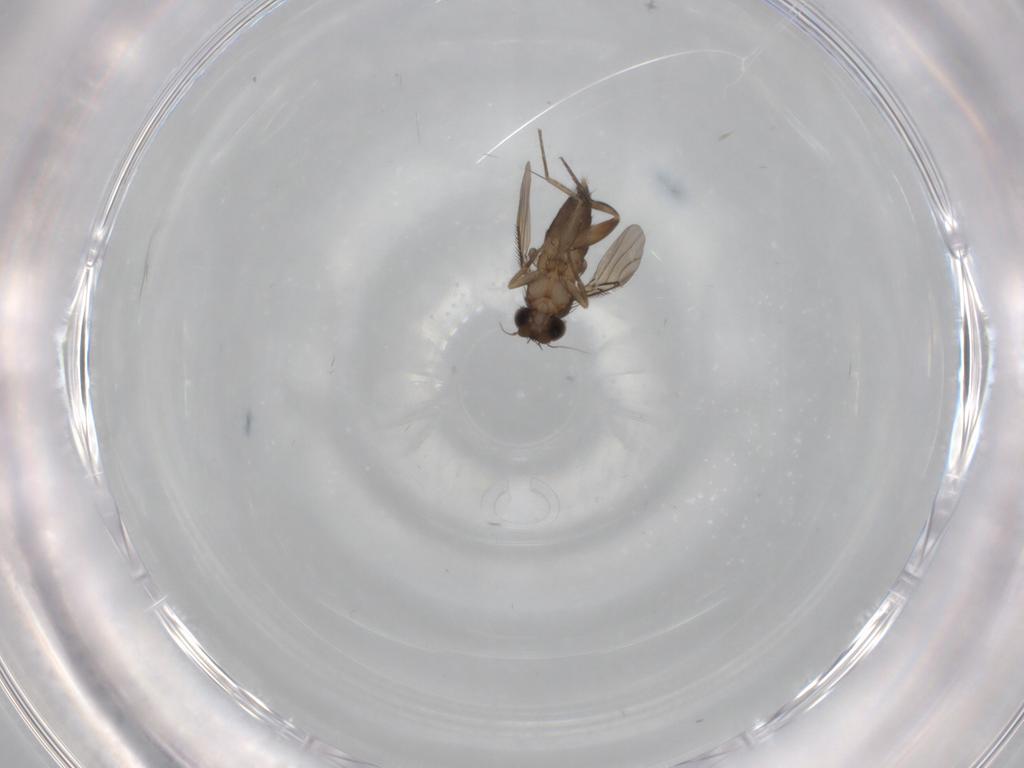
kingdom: Animalia
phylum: Arthropoda
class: Insecta
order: Diptera
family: Phoridae
